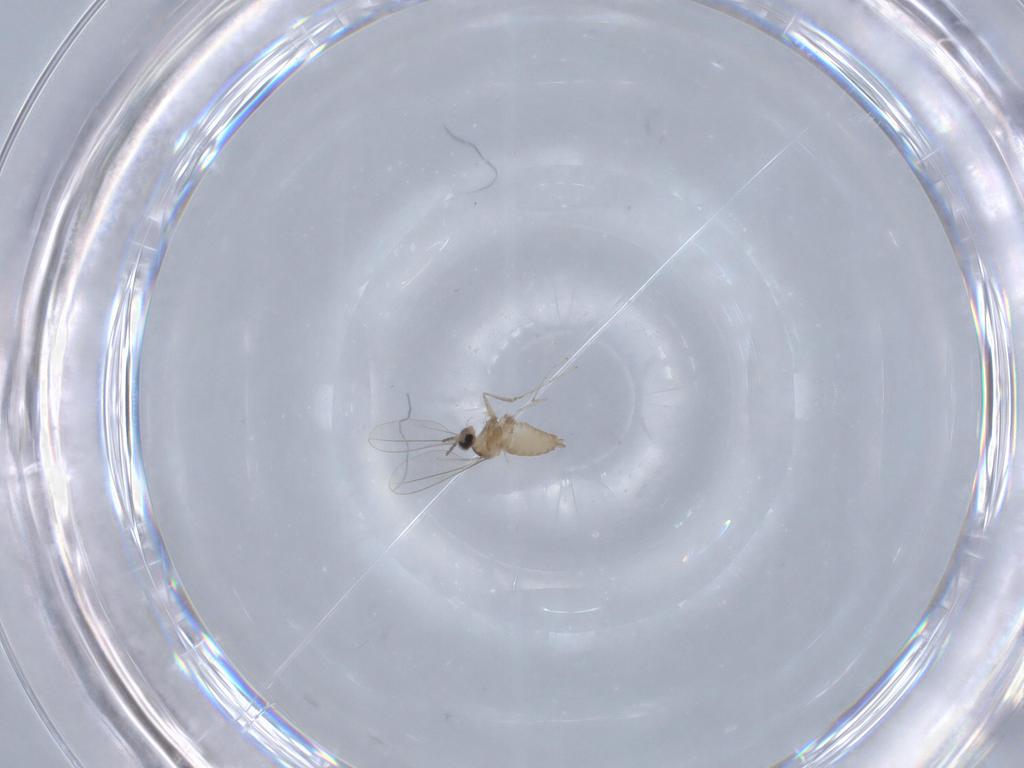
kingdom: Animalia
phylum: Arthropoda
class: Insecta
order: Diptera
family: Cecidomyiidae
